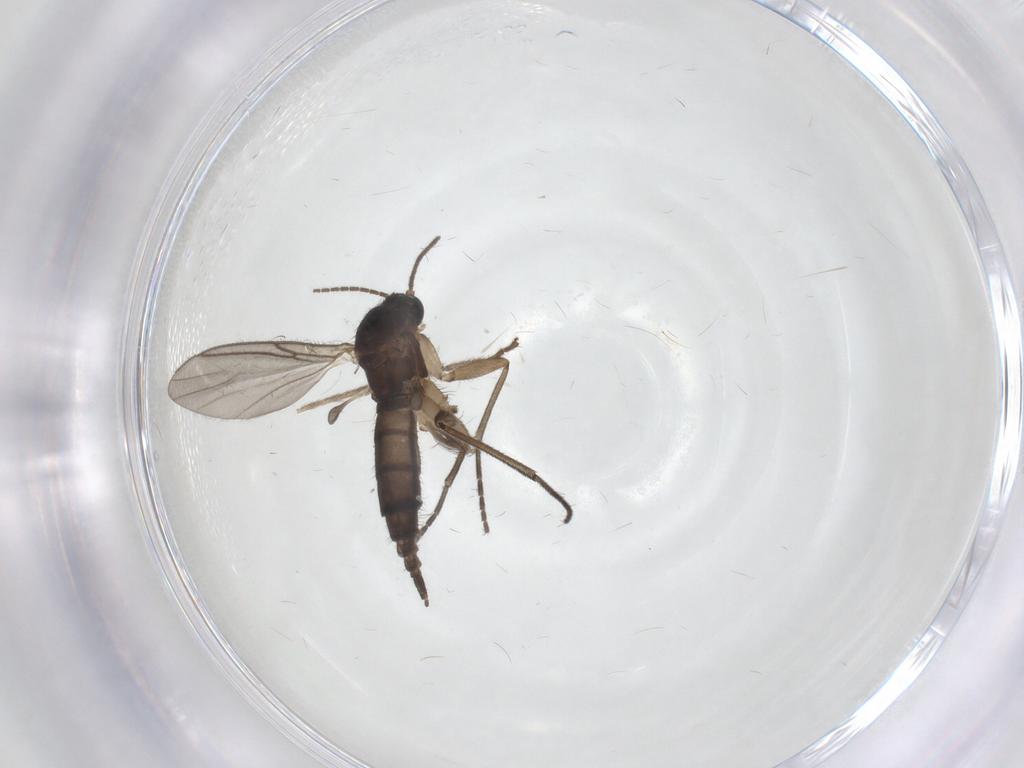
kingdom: Animalia
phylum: Arthropoda
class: Insecta
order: Diptera
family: Sciaridae
